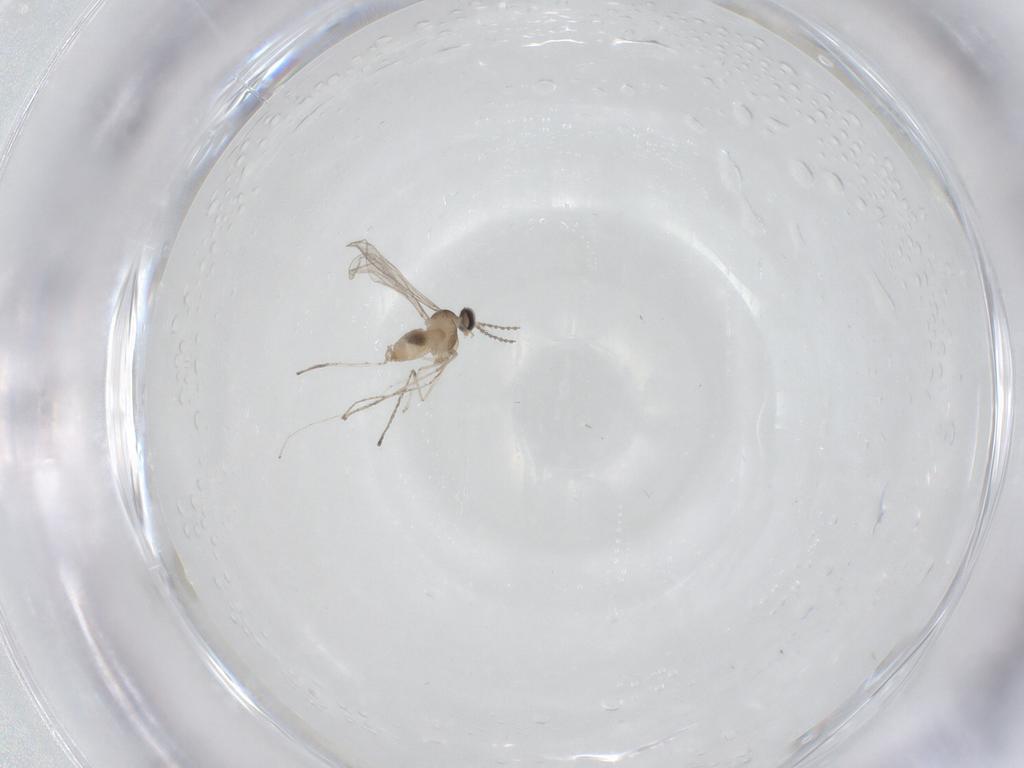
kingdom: Animalia
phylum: Arthropoda
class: Insecta
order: Diptera
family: Cecidomyiidae
